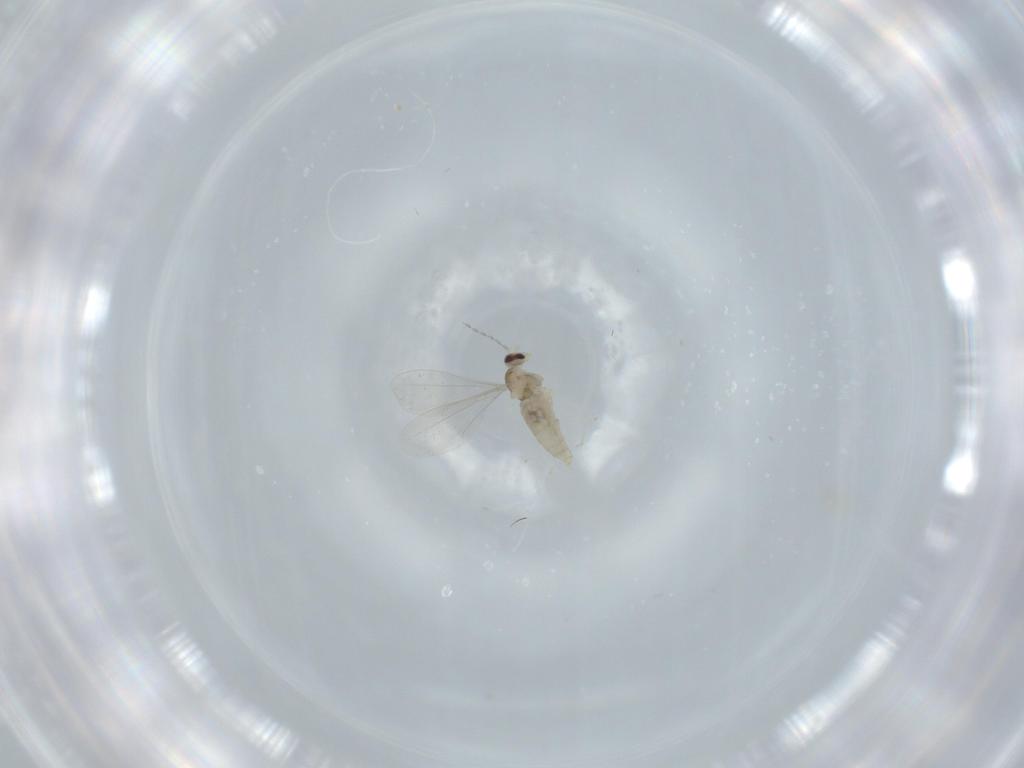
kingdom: Animalia
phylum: Arthropoda
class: Insecta
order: Diptera
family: Cecidomyiidae
